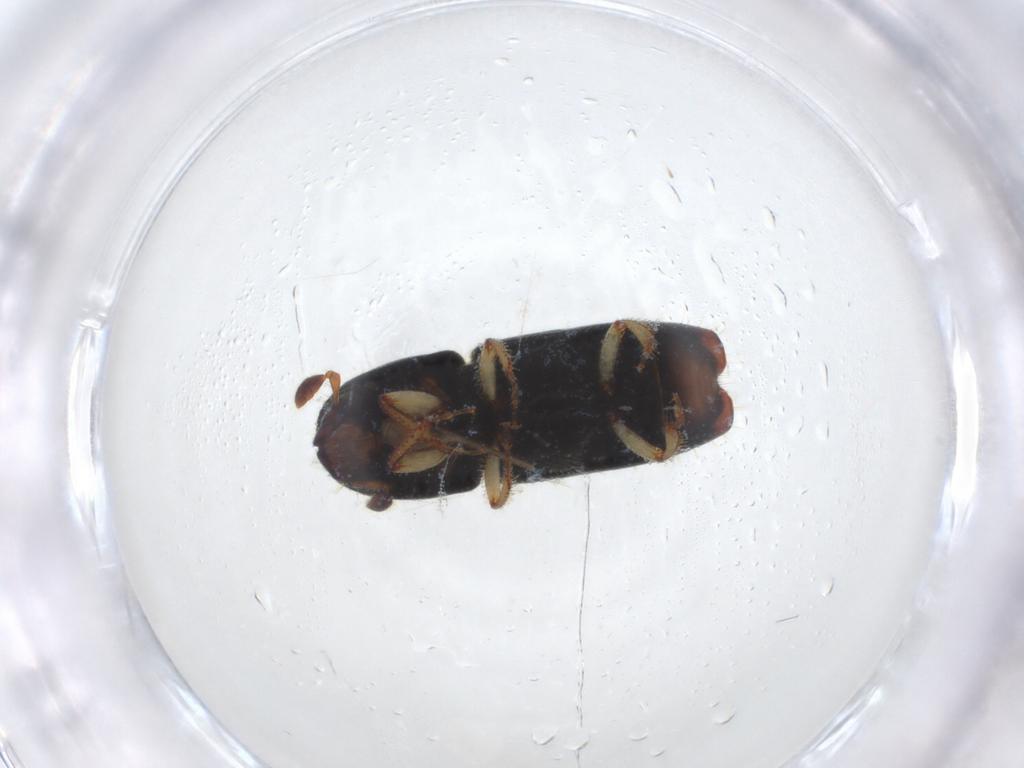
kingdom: Animalia
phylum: Arthropoda
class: Insecta
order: Coleoptera
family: Curculionidae
